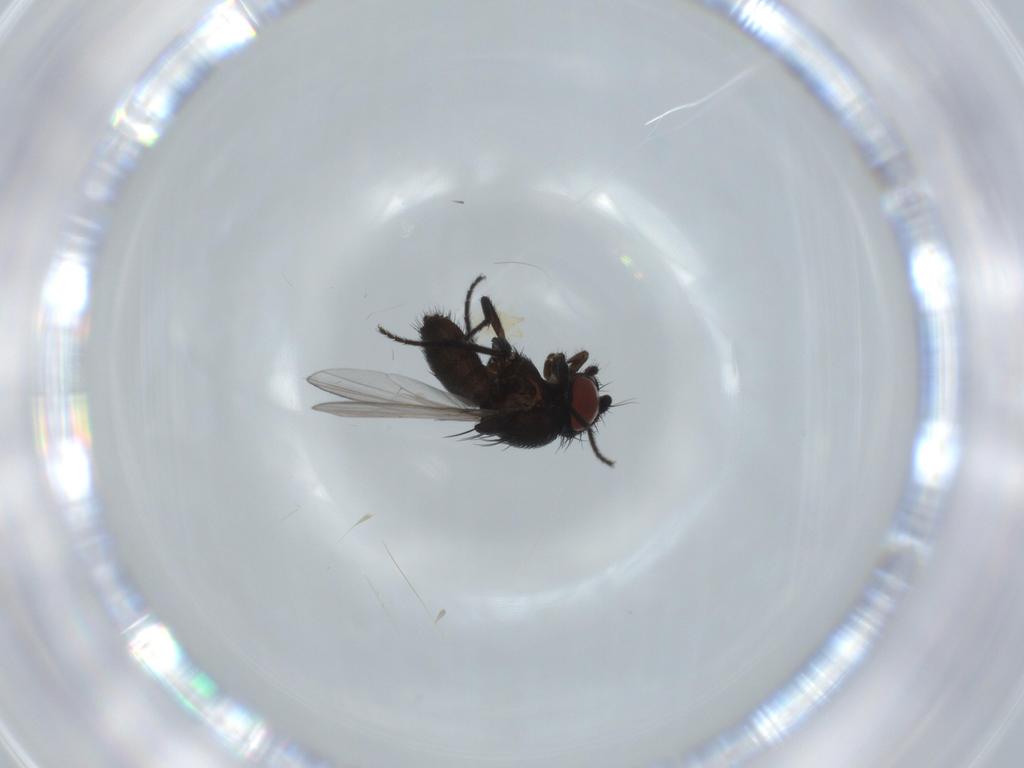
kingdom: Animalia
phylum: Arthropoda
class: Insecta
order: Diptera
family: Milichiidae
